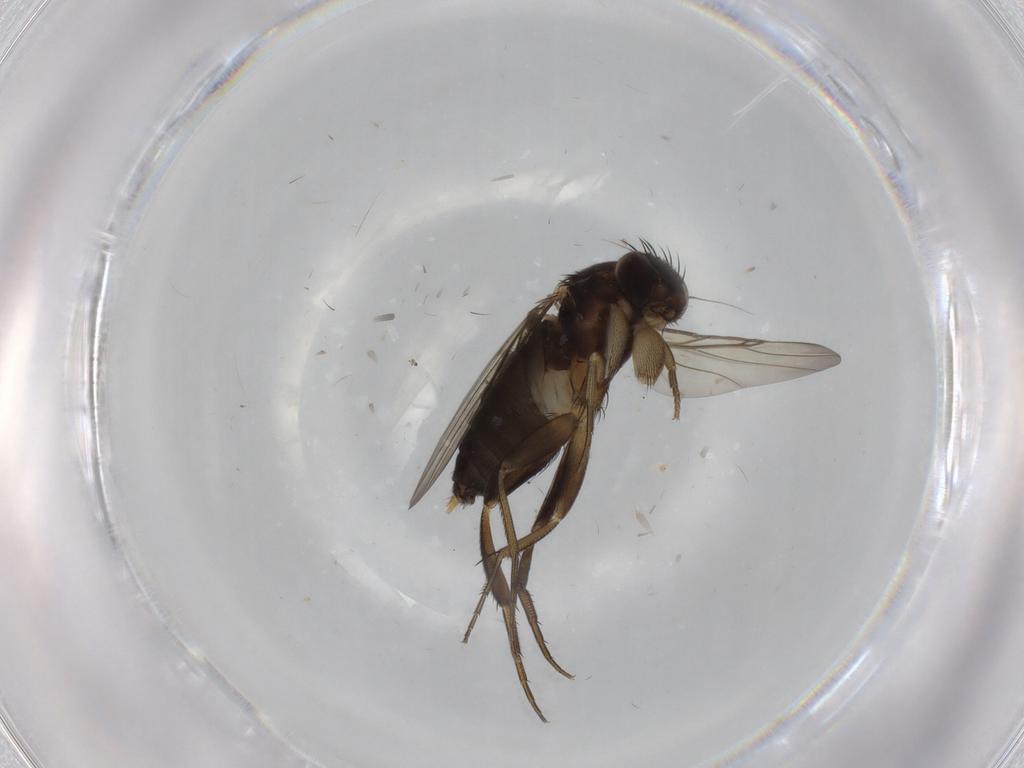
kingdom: Animalia
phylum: Arthropoda
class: Insecta
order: Diptera
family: Phoridae
